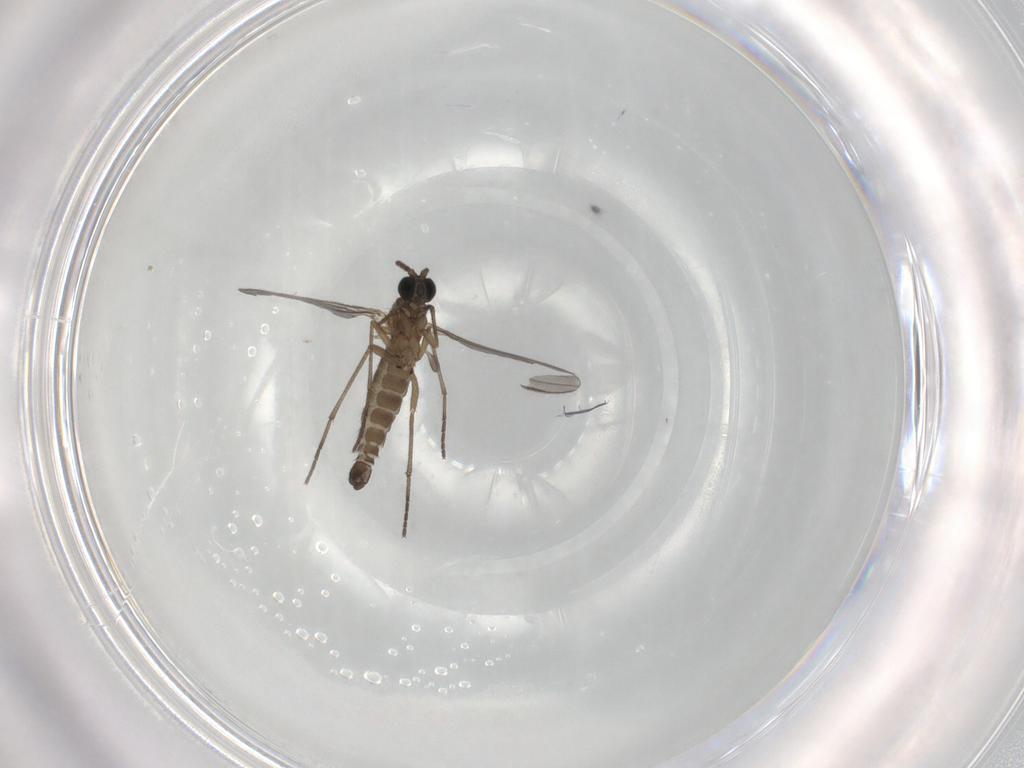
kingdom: Animalia
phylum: Arthropoda
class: Insecta
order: Diptera
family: Sciaridae
